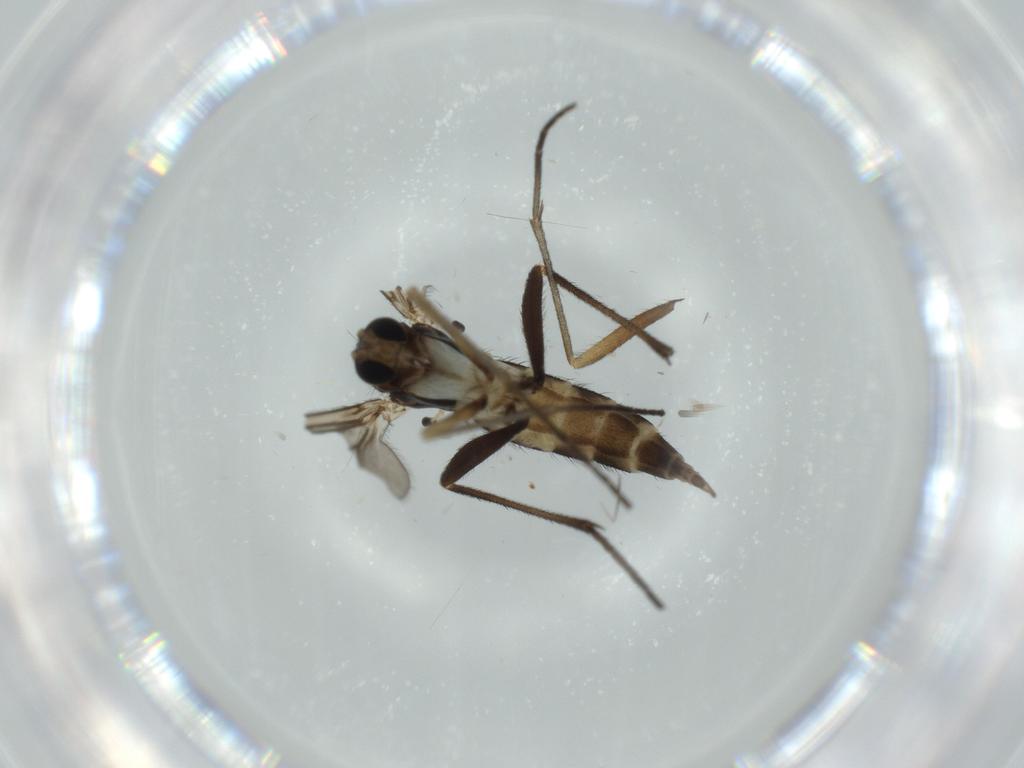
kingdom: Animalia
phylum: Arthropoda
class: Insecta
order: Diptera
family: Sciaridae
